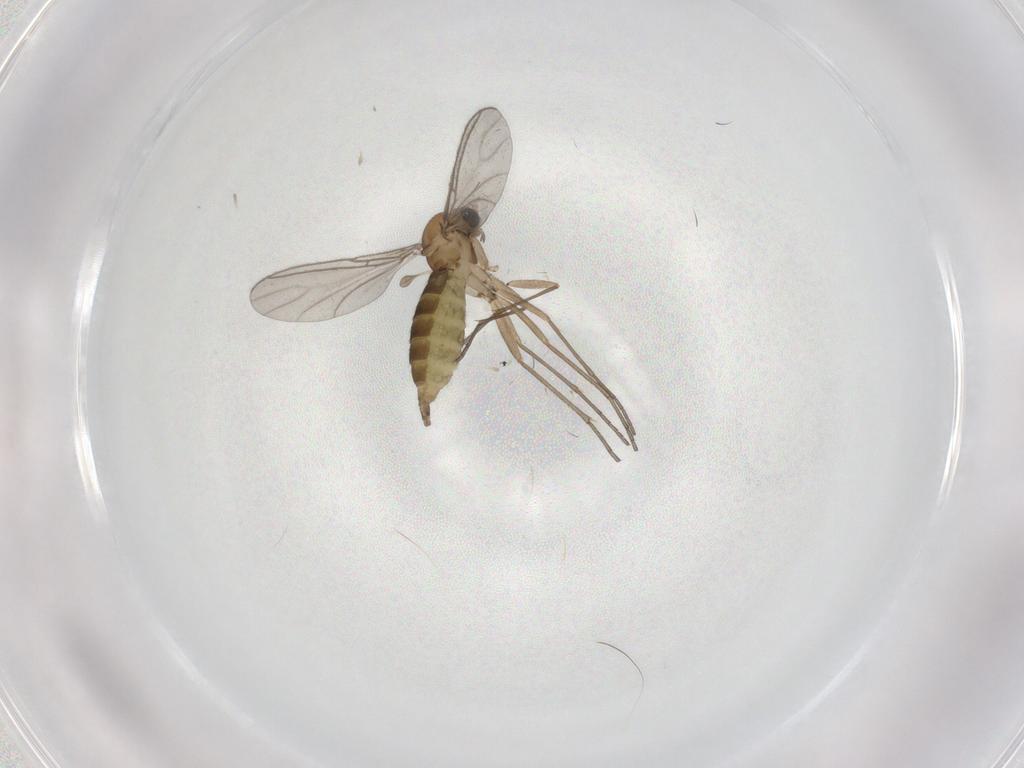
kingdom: Animalia
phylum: Arthropoda
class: Insecta
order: Diptera
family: Sciaridae
